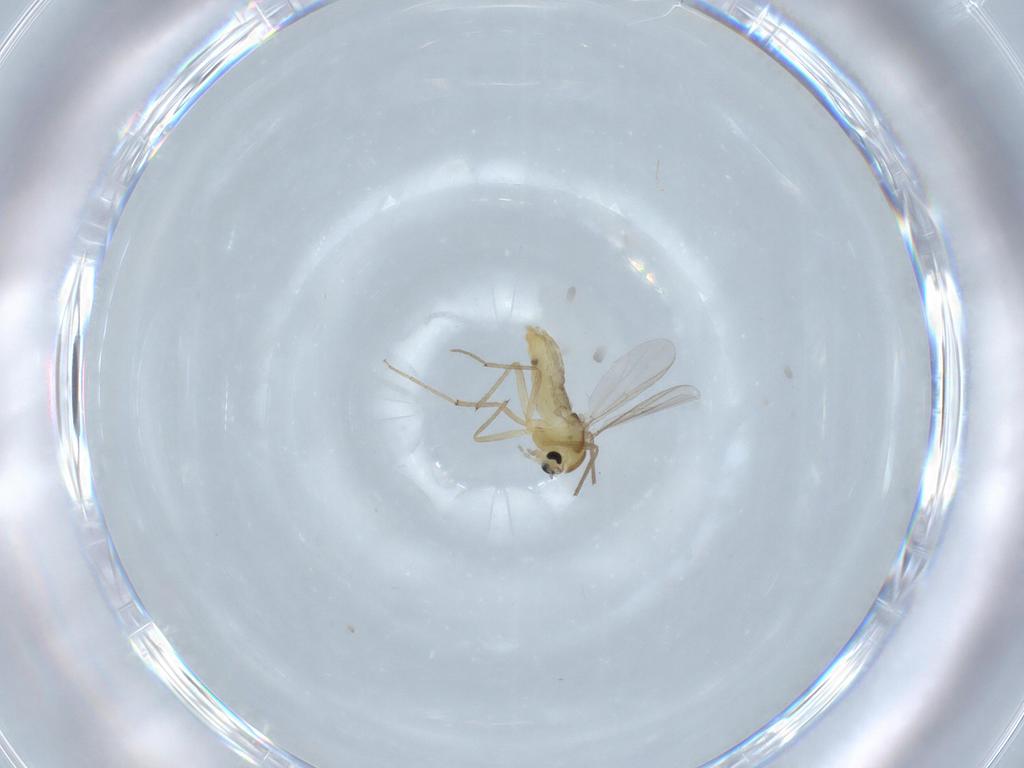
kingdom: Animalia
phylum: Arthropoda
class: Insecta
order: Diptera
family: Chironomidae
